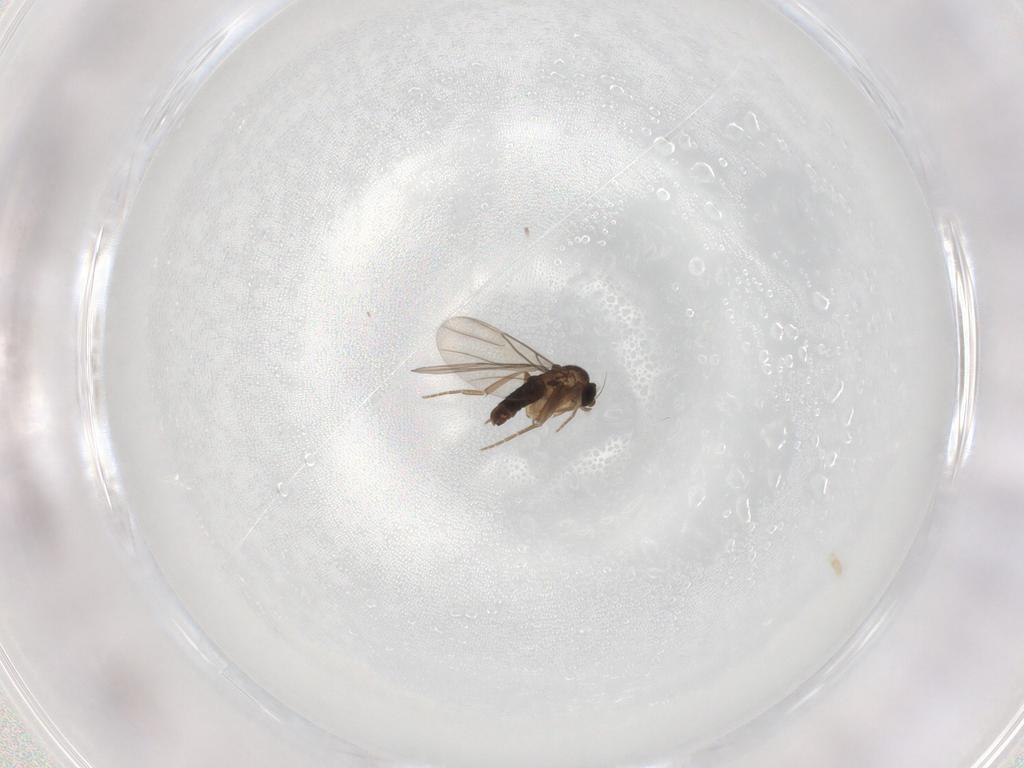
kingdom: Animalia
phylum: Arthropoda
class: Insecta
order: Diptera
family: Phoridae
